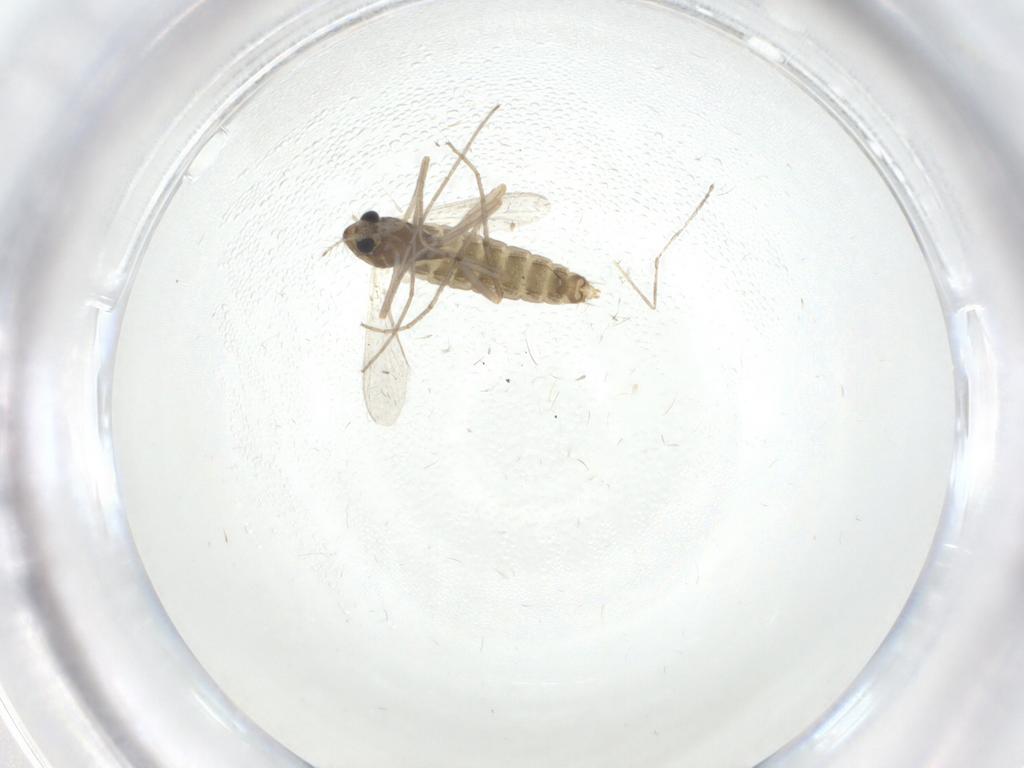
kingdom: Animalia
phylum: Arthropoda
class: Insecta
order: Diptera
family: Chironomidae
